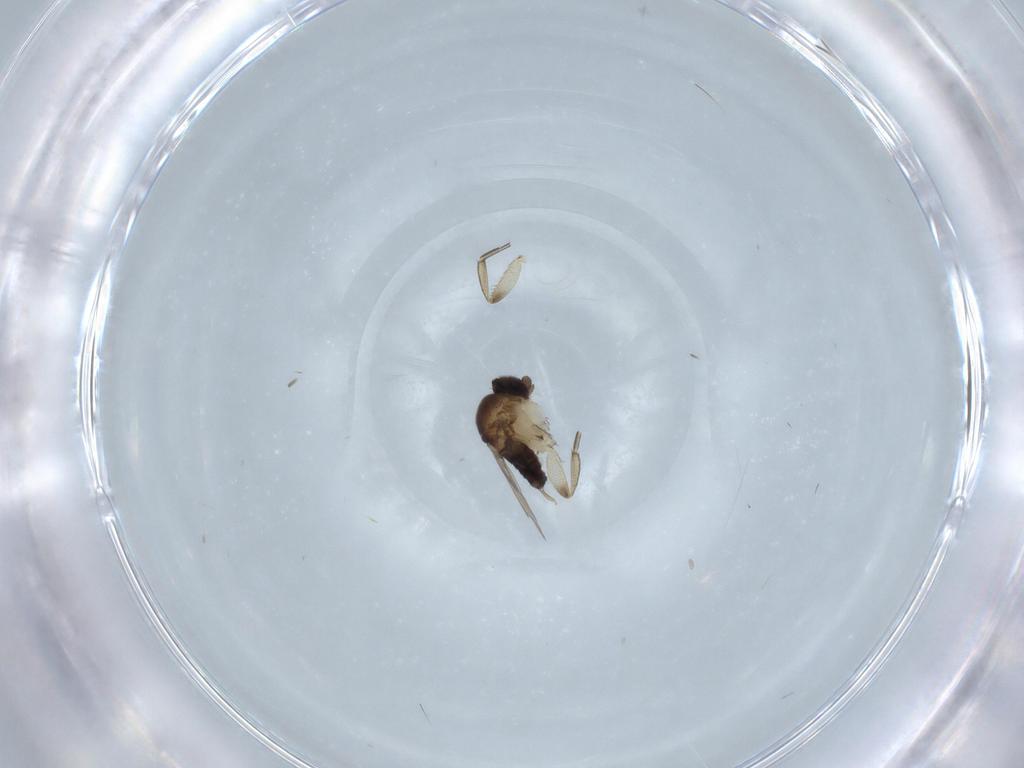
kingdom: Animalia
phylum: Arthropoda
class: Insecta
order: Diptera
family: Phoridae
